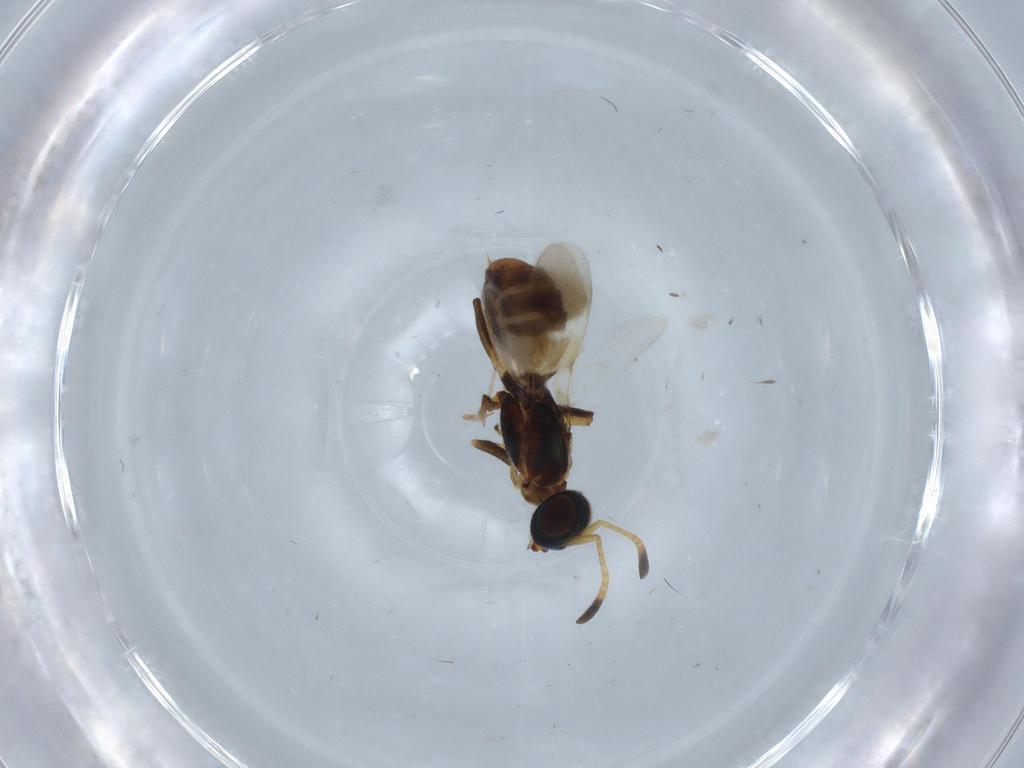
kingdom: Animalia
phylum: Arthropoda
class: Insecta
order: Hymenoptera
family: Eupelmidae
